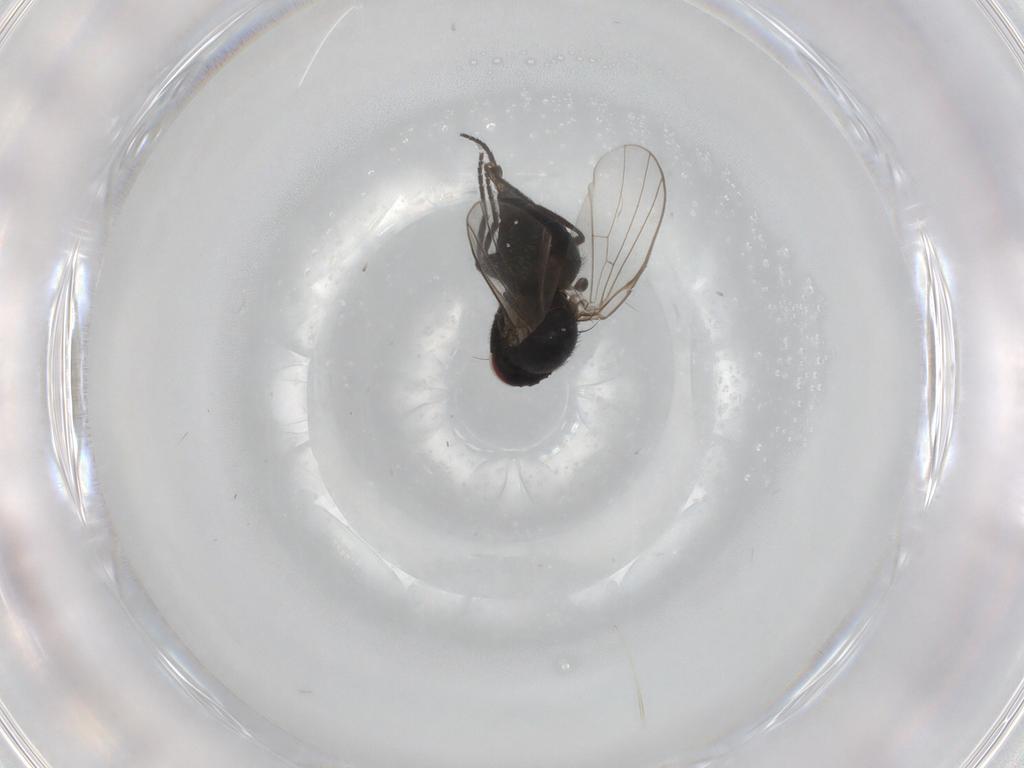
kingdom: Animalia
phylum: Arthropoda
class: Insecta
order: Diptera
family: Agromyzidae
